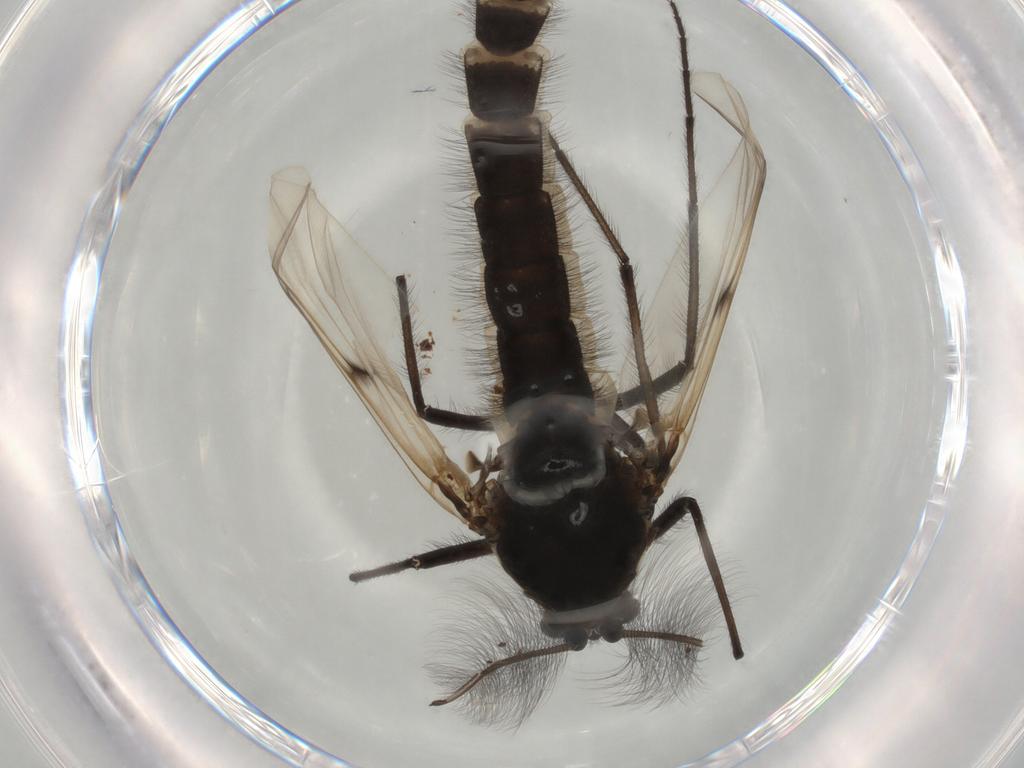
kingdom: Animalia
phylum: Arthropoda
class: Insecta
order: Diptera
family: Chironomidae
